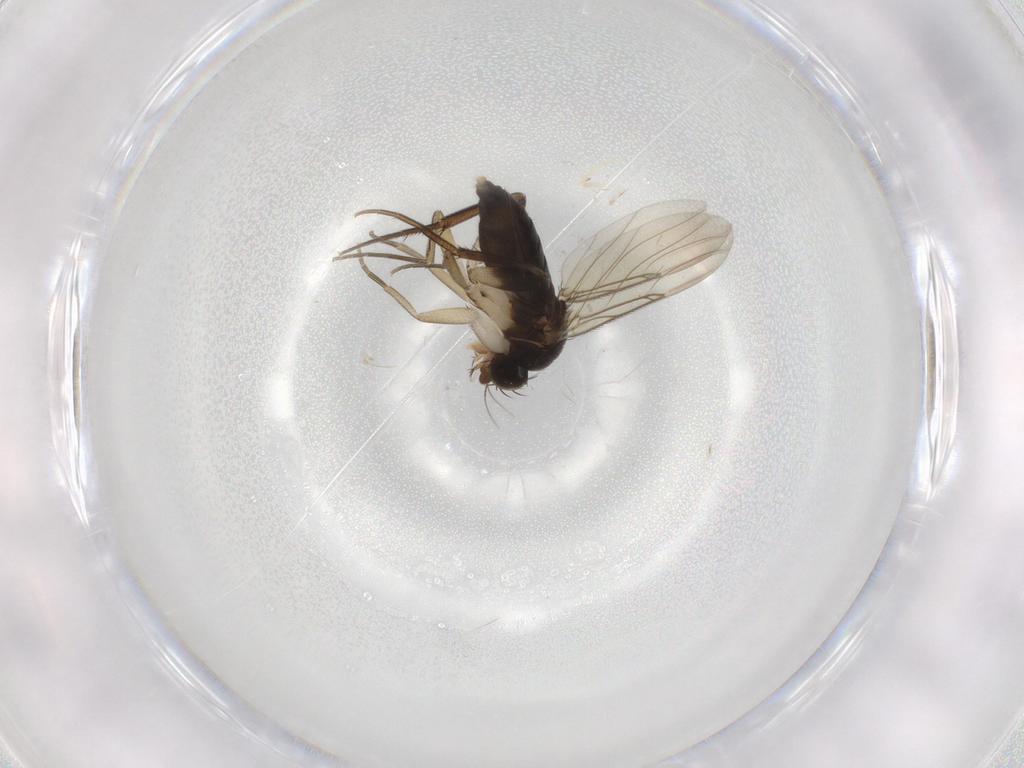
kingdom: Animalia
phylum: Arthropoda
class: Insecta
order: Diptera
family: Phoridae
